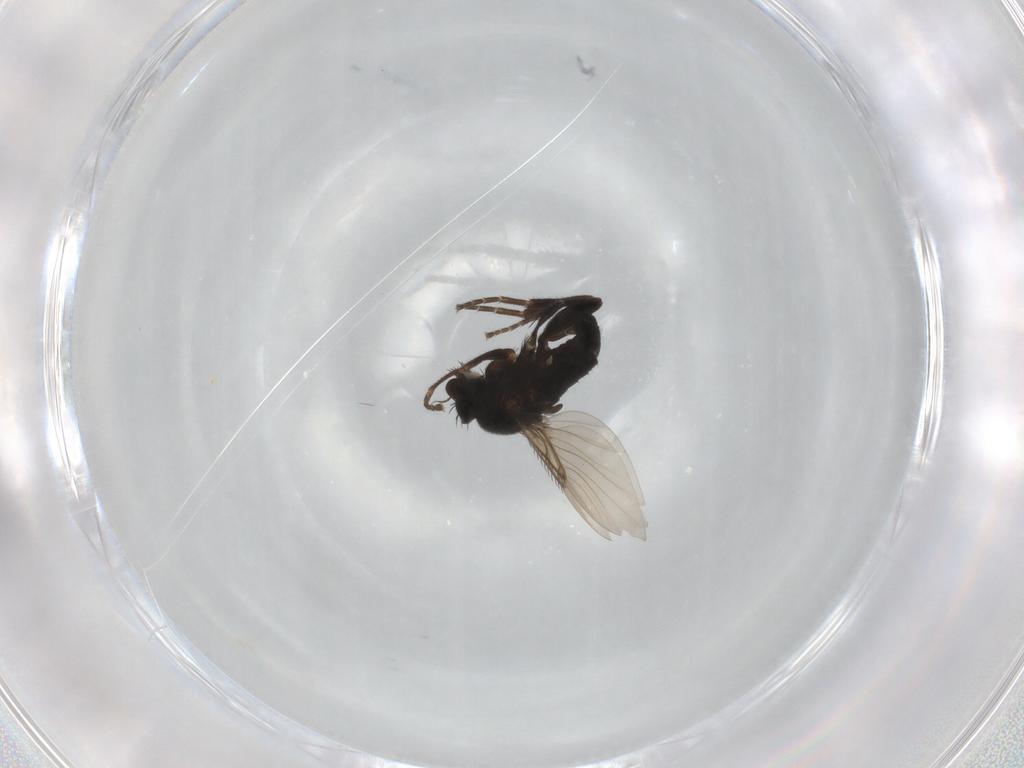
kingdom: Animalia
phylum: Arthropoda
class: Insecta
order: Diptera
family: Phoridae
